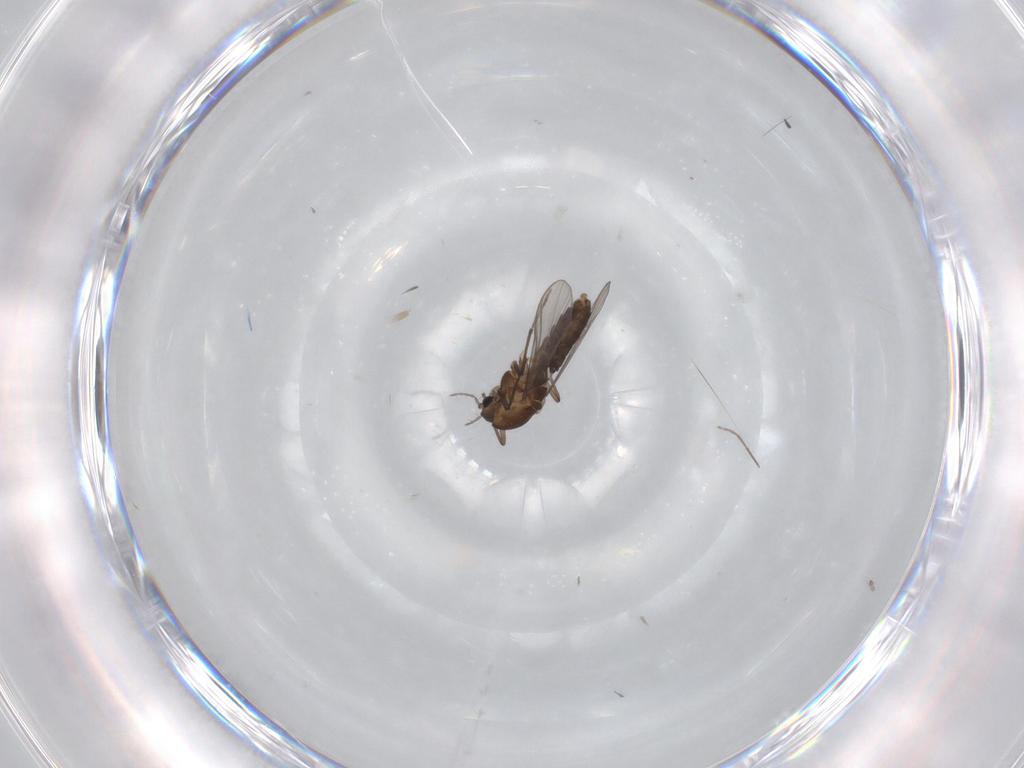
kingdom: Animalia
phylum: Arthropoda
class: Insecta
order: Diptera
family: Chironomidae
